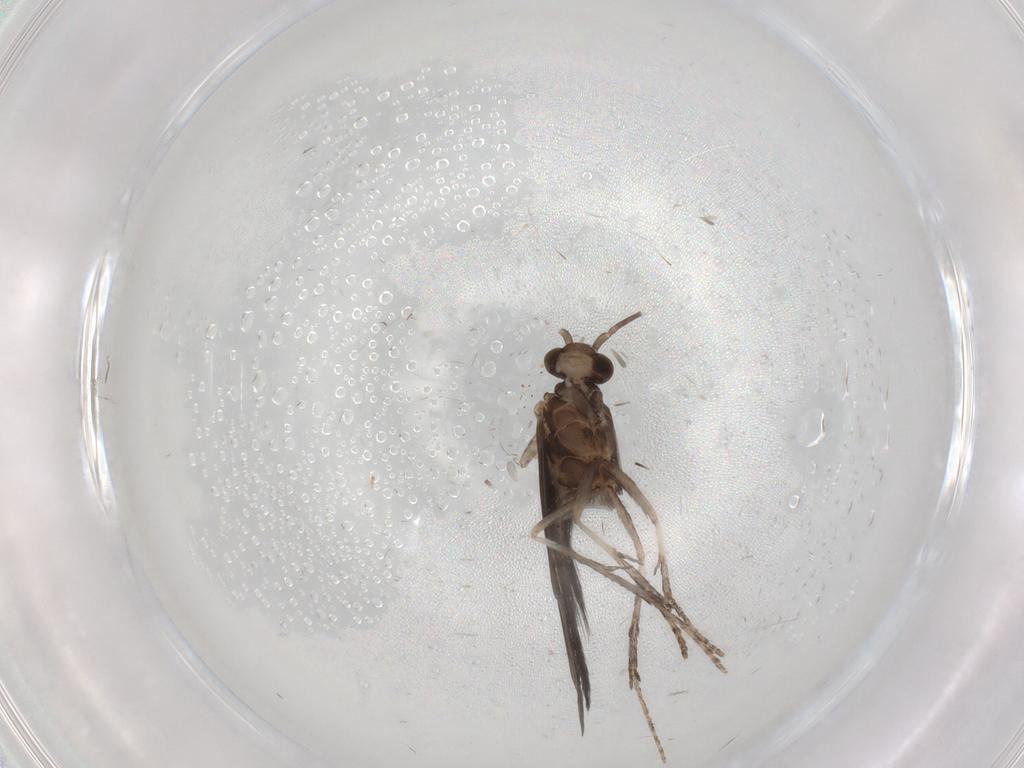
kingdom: Animalia
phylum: Arthropoda
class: Insecta
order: Trichoptera
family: Xiphocentronidae
